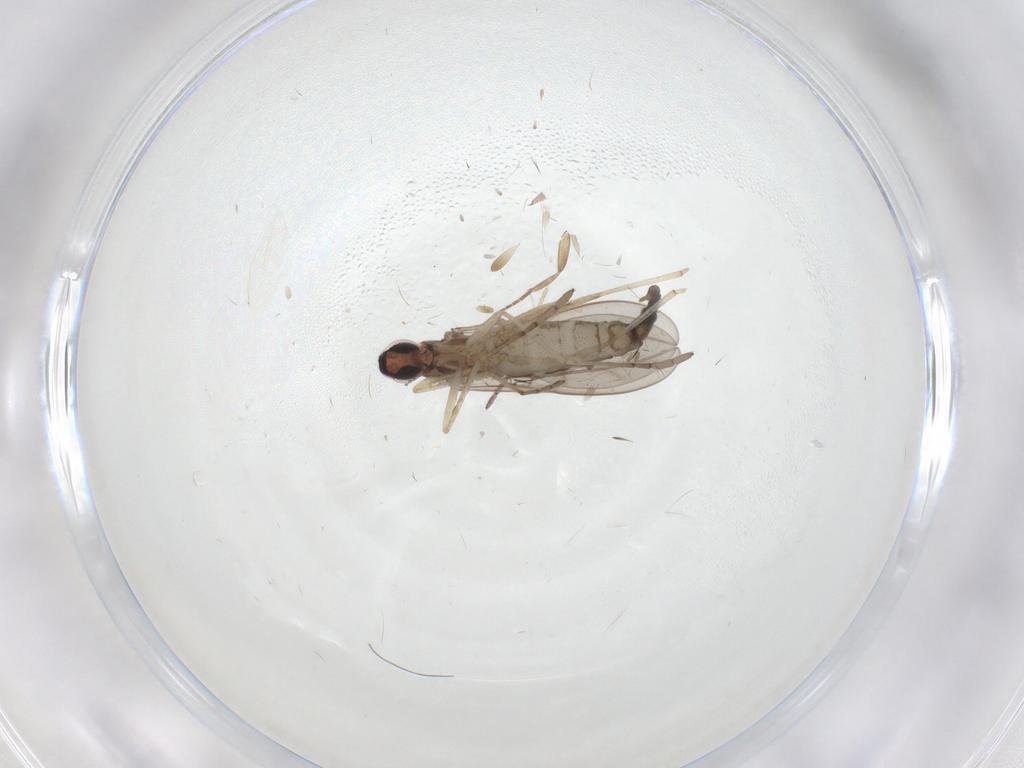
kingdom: Animalia
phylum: Arthropoda
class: Insecta
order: Diptera
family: Cecidomyiidae
